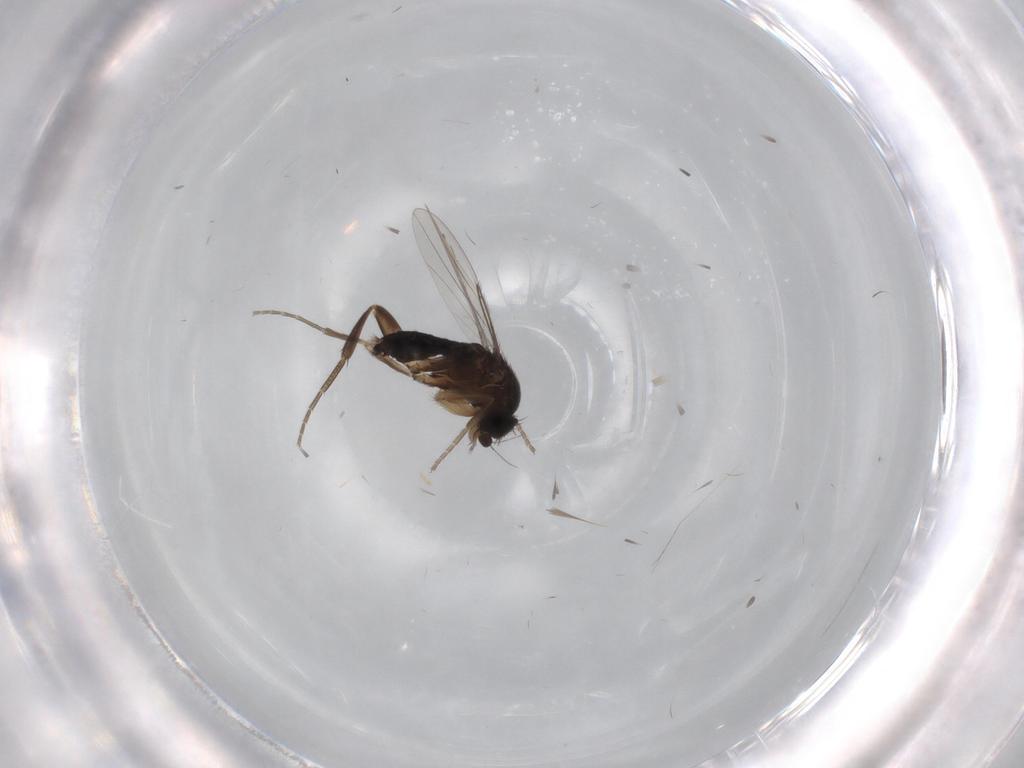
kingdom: Animalia
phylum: Arthropoda
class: Insecta
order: Diptera
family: Phoridae
